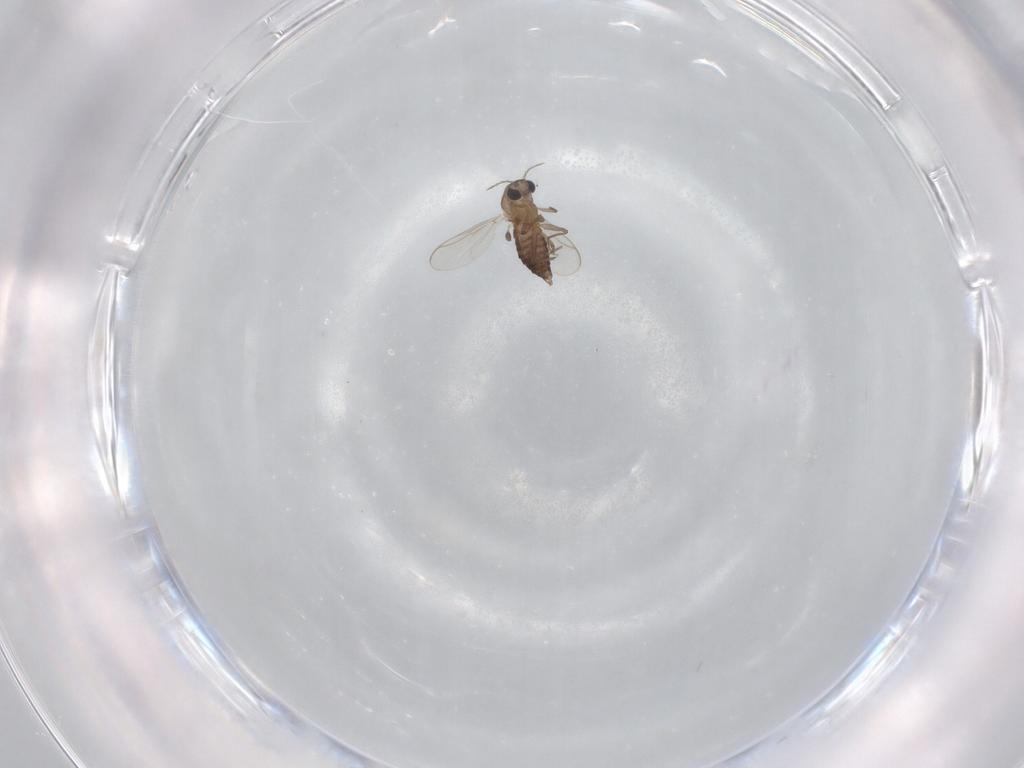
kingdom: Animalia
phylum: Arthropoda
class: Insecta
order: Diptera
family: Chironomidae
